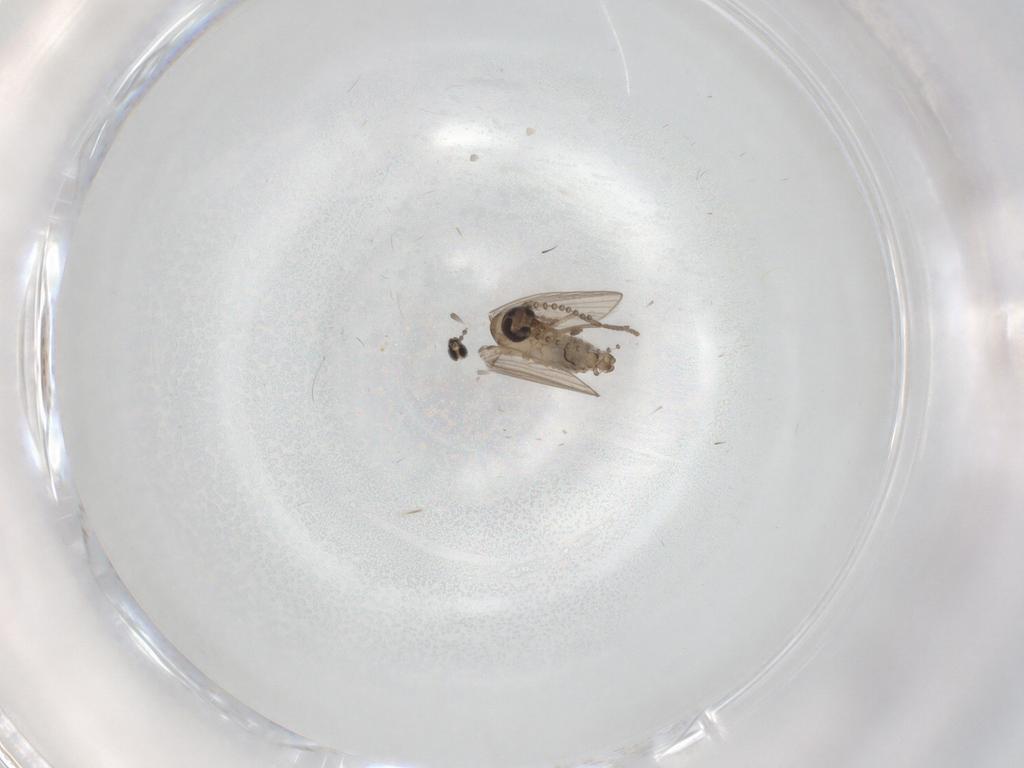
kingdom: Animalia
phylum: Arthropoda
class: Insecta
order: Diptera
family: Cecidomyiidae
